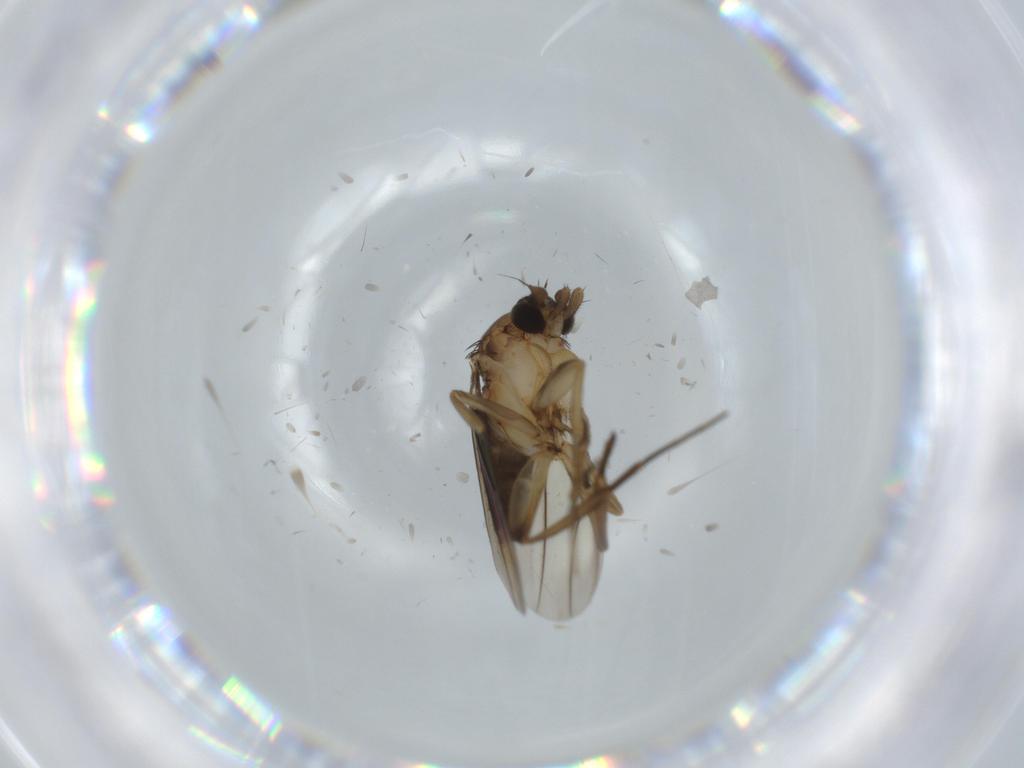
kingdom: Animalia
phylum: Arthropoda
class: Insecta
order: Diptera
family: Phoridae
